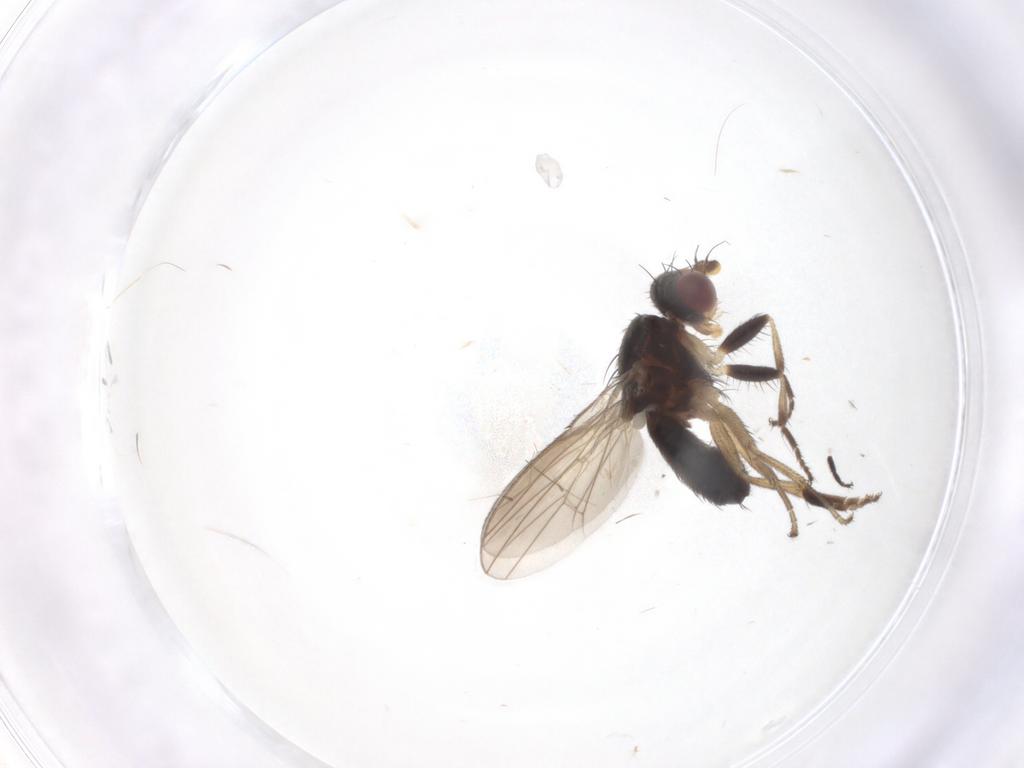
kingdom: Animalia
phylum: Arthropoda
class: Insecta
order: Diptera
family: Heleomyzidae
